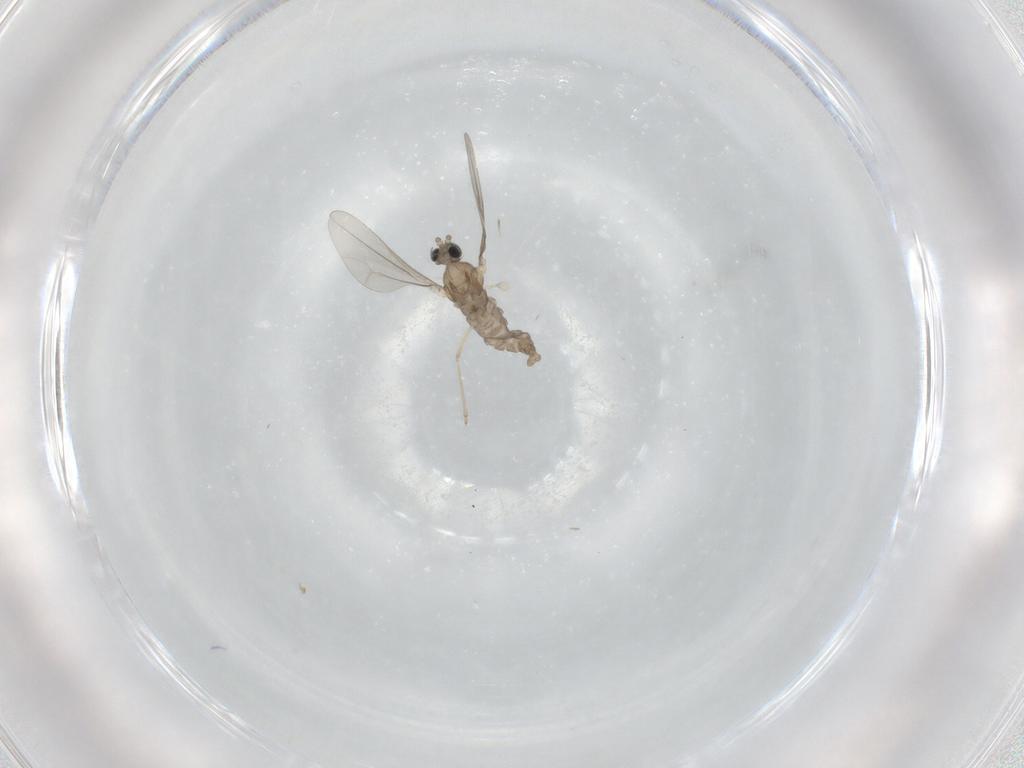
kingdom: Animalia
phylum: Arthropoda
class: Insecta
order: Diptera
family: Cecidomyiidae
